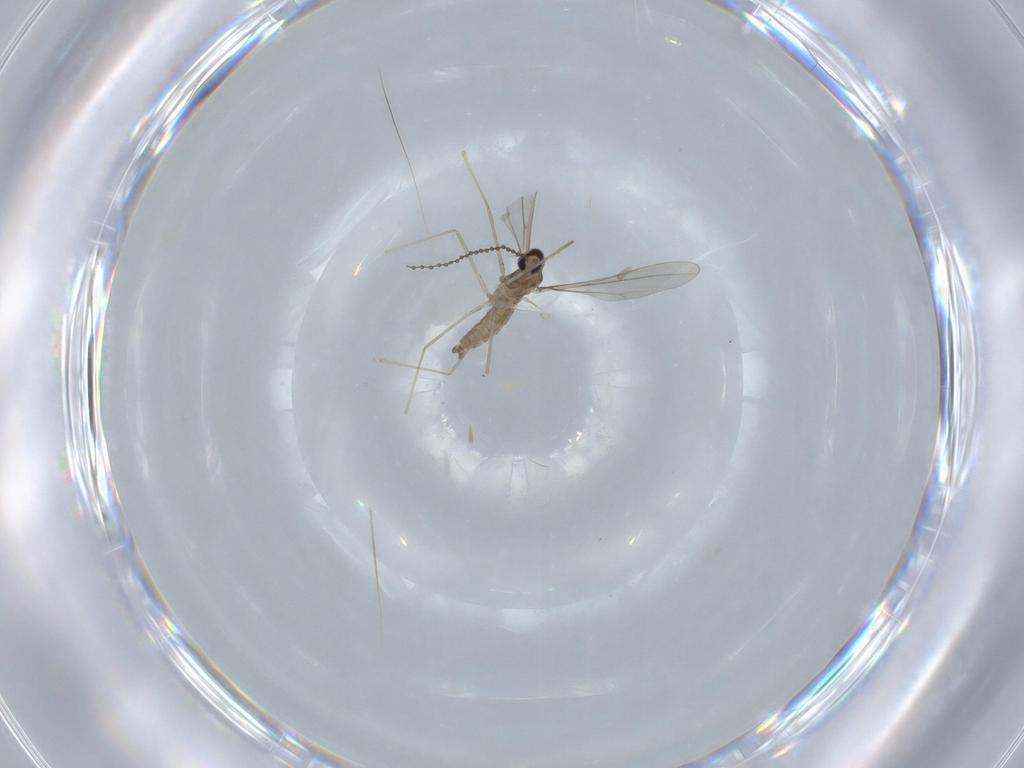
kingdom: Animalia
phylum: Arthropoda
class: Insecta
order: Diptera
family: Cecidomyiidae
